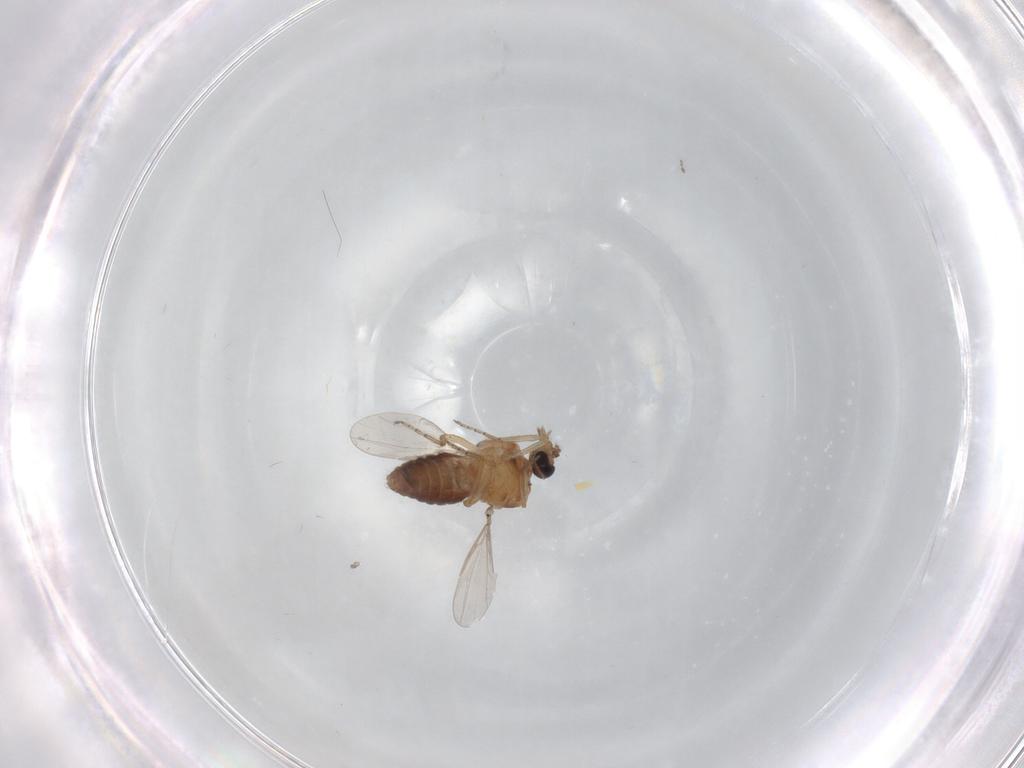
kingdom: Animalia
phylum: Arthropoda
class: Insecta
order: Diptera
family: Ceratopogonidae
